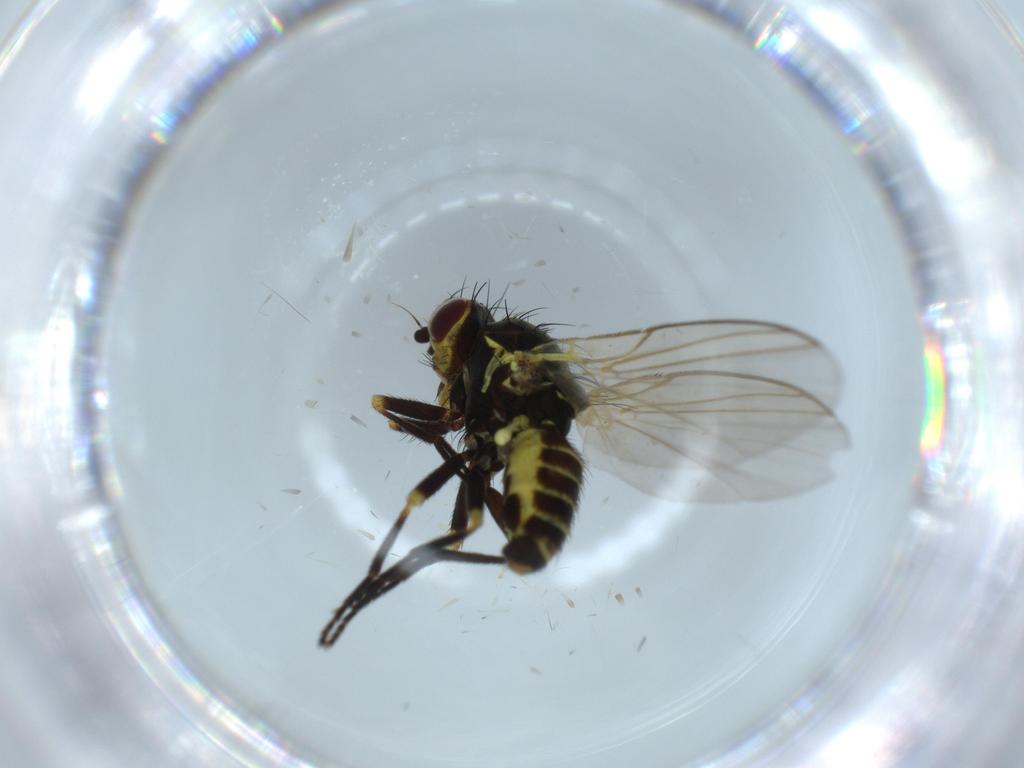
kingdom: Animalia
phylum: Arthropoda
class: Insecta
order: Diptera
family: Agromyzidae
